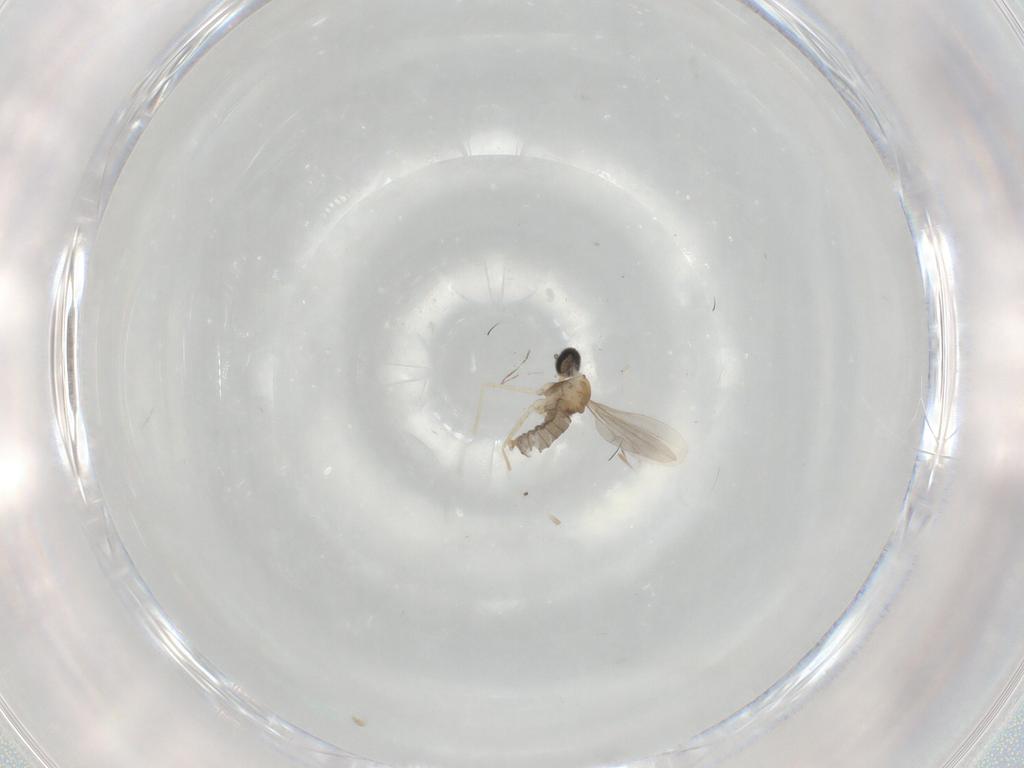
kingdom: Animalia
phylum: Arthropoda
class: Insecta
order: Diptera
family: Cecidomyiidae
